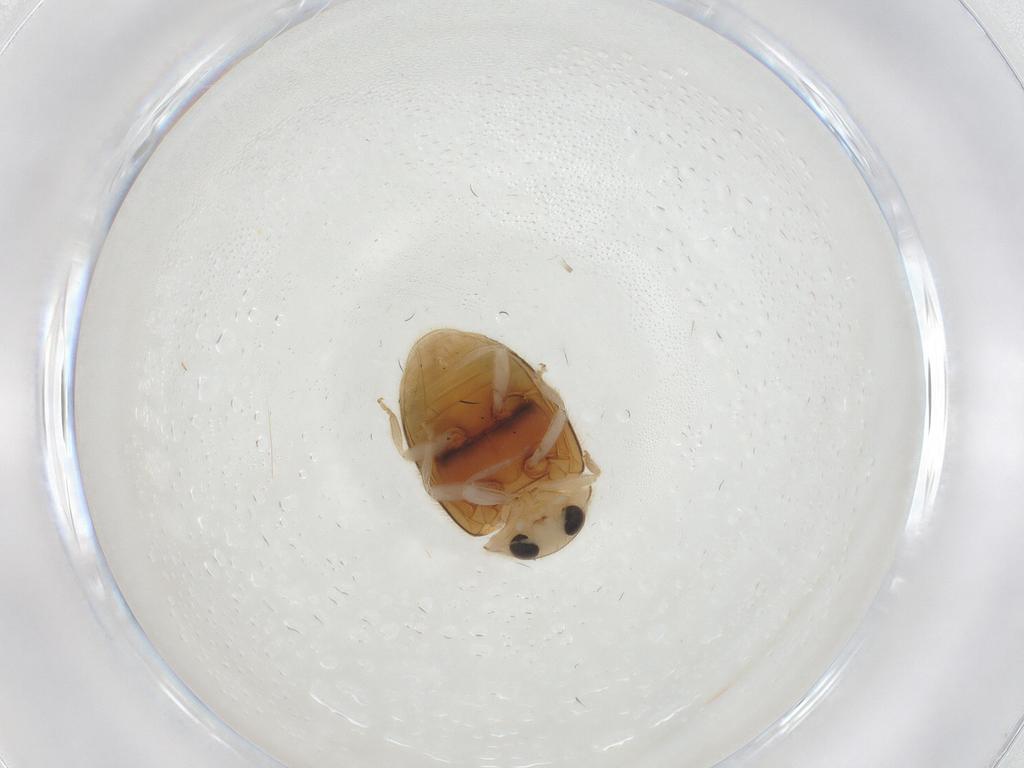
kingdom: Animalia
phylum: Arthropoda
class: Insecta
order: Coleoptera
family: Coccinellidae
